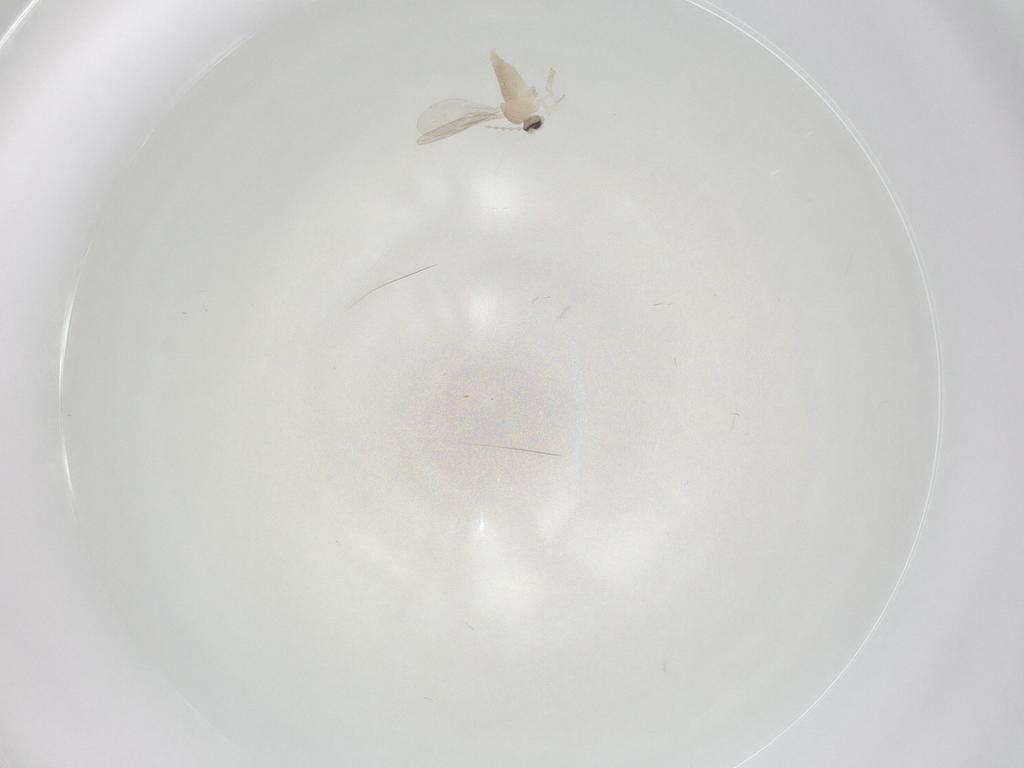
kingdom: Animalia
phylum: Arthropoda
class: Insecta
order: Diptera
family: Cecidomyiidae
